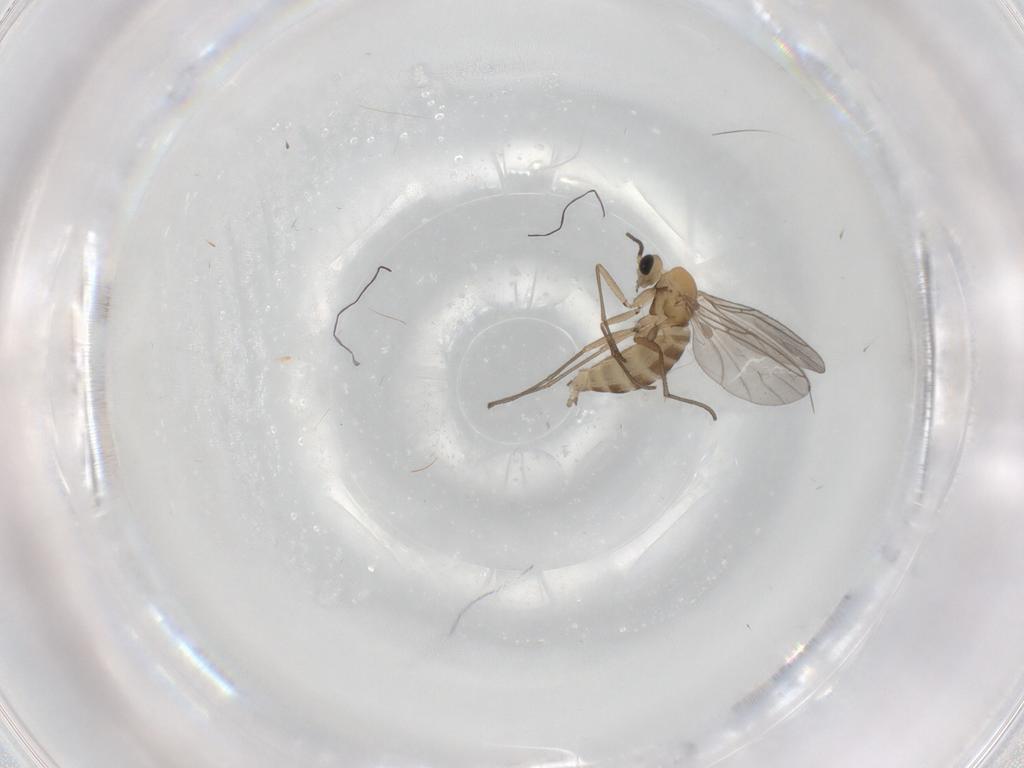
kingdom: Animalia
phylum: Arthropoda
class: Insecta
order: Diptera
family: Sciaridae
